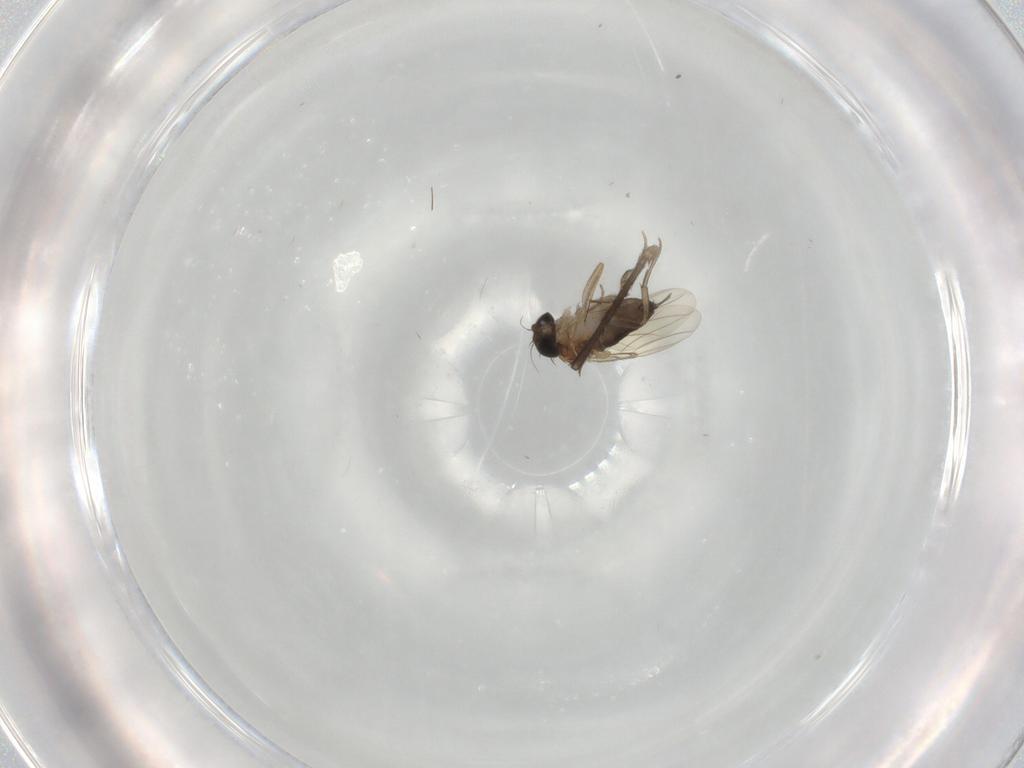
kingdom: Animalia
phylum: Arthropoda
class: Insecta
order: Diptera
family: Sciaridae
